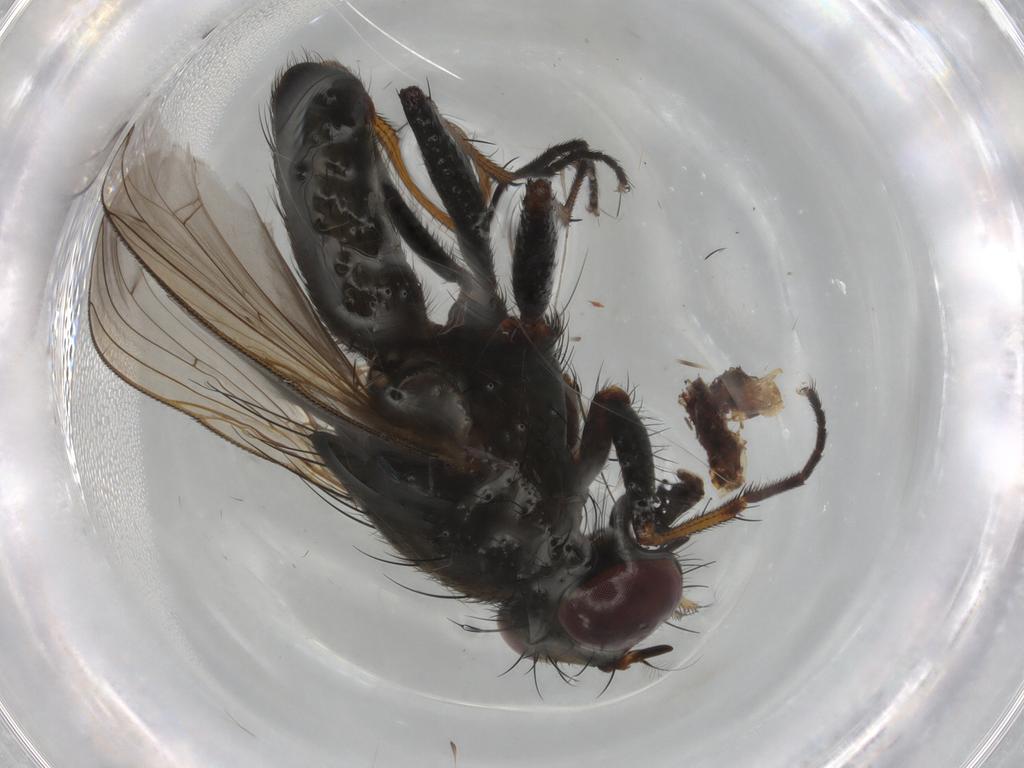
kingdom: Animalia
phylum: Arthropoda
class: Insecta
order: Diptera
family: Muscidae
